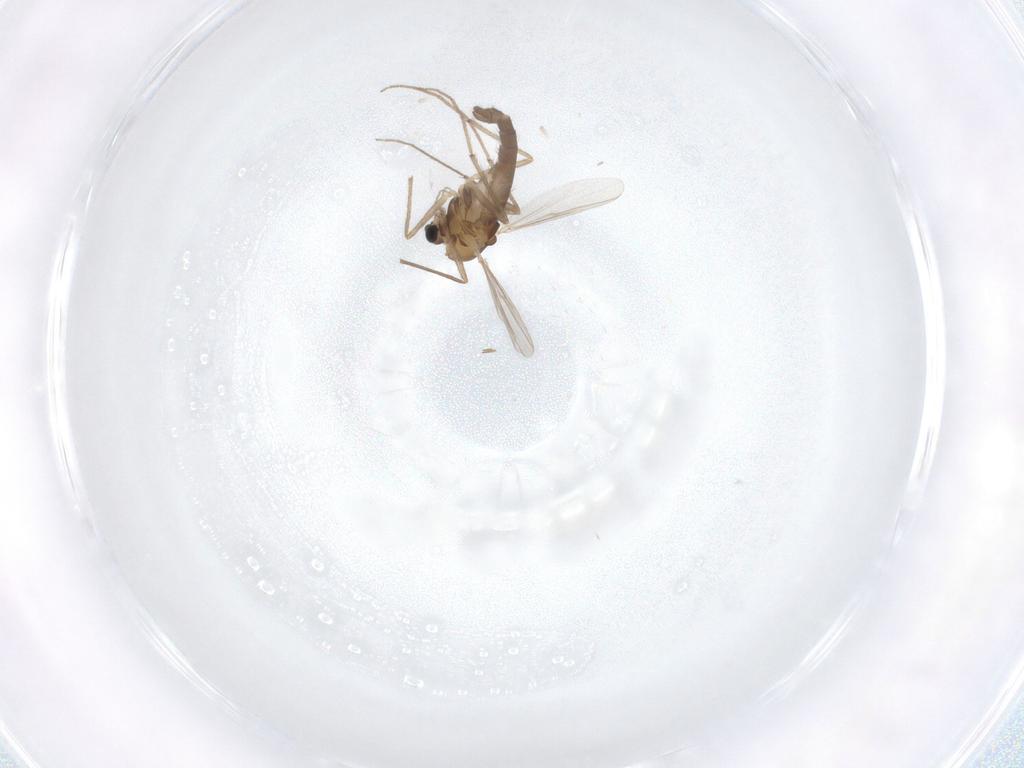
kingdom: Animalia
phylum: Arthropoda
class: Insecta
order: Diptera
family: Chironomidae
